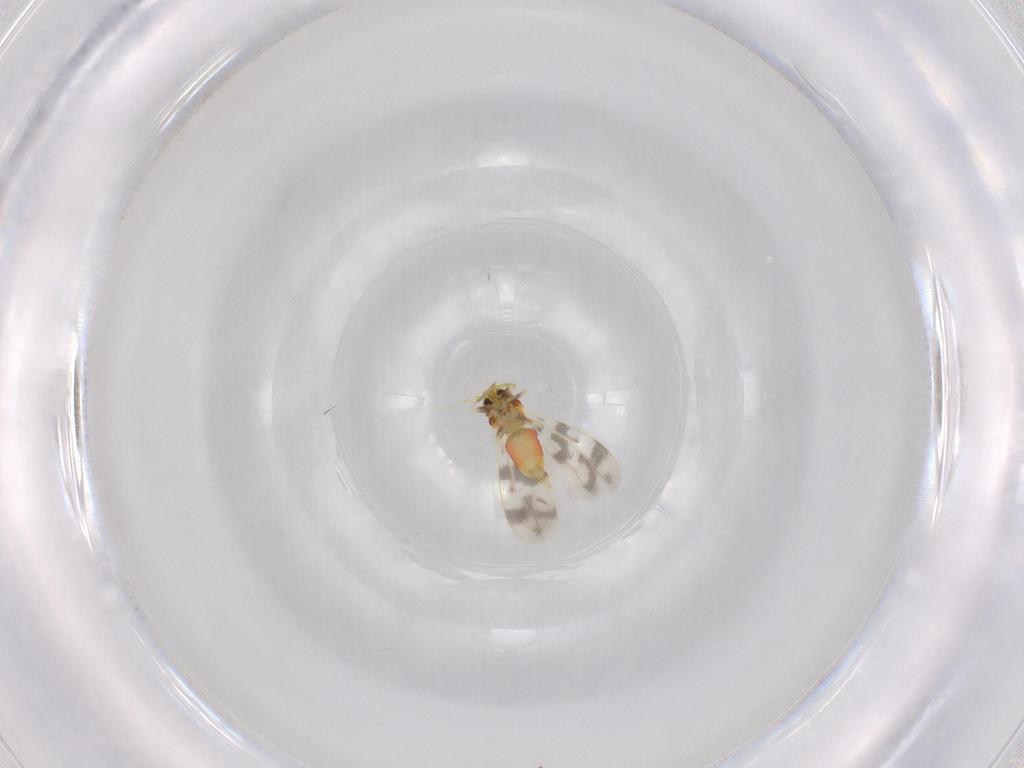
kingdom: Animalia
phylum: Arthropoda
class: Insecta
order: Hemiptera
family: Aleyrodidae
